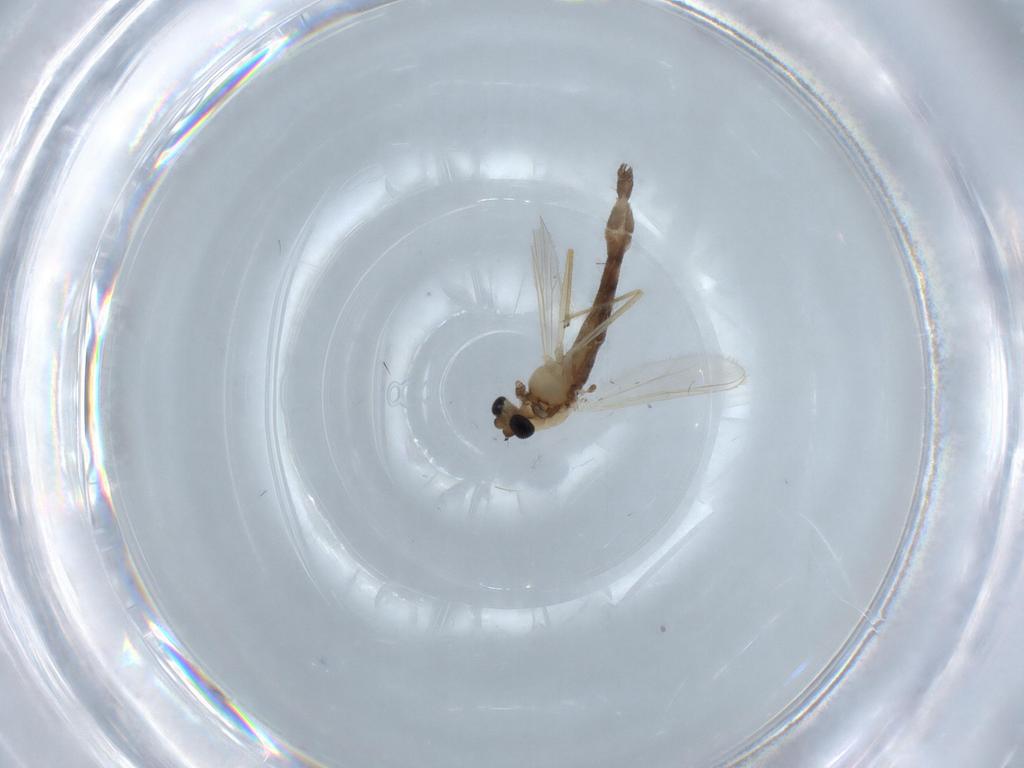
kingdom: Animalia
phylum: Arthropoda
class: Insecta
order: Diptera
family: Chironomidae
